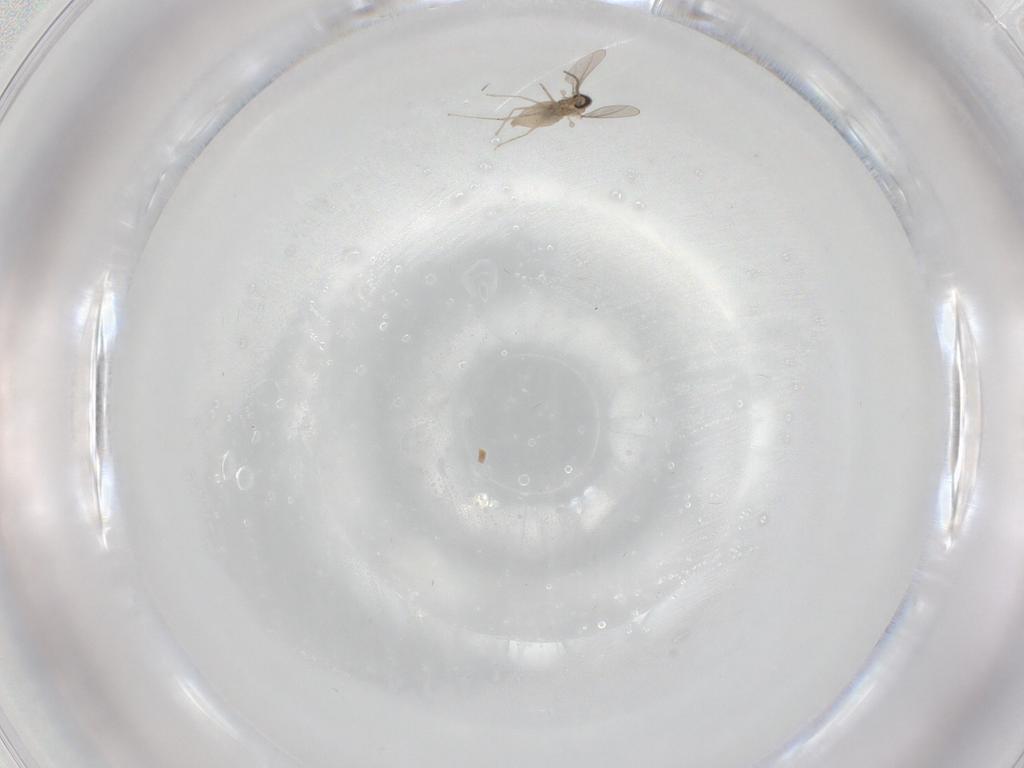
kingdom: Animalia
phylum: Arthropoda
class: Insecta
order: Diptera
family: Cecidomyiidae
